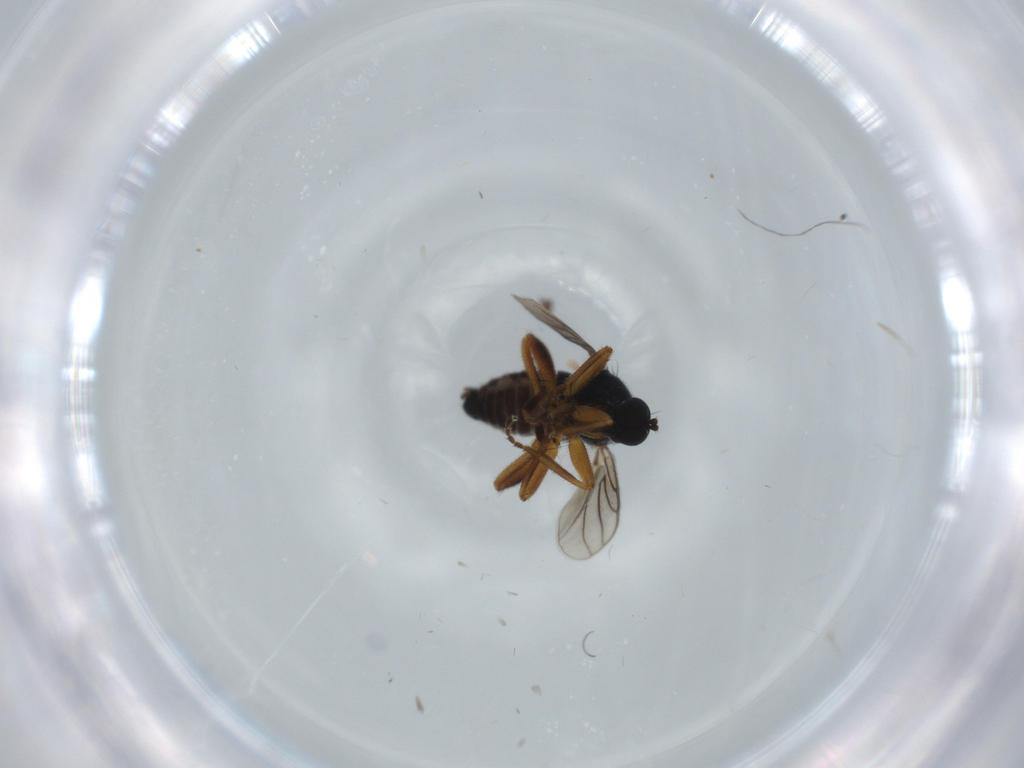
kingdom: Animalia
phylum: Arthropoda
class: Insecta
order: Diptera
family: Hybotidae
